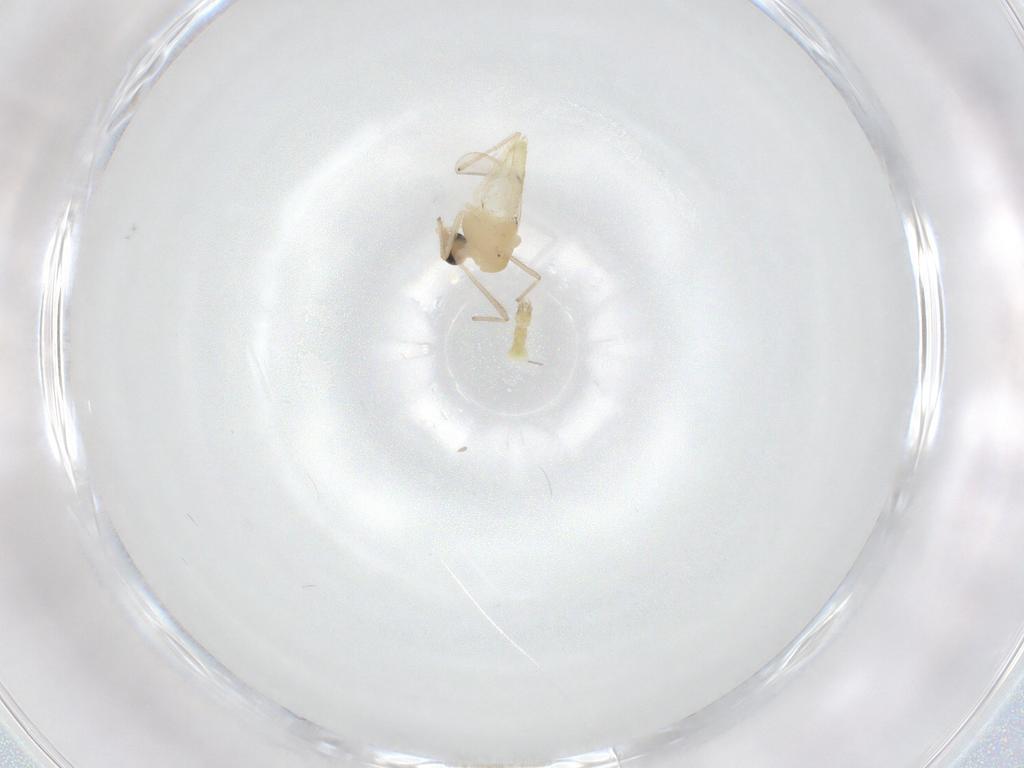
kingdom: Animalia
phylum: Arthropoda
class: Insecta
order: Diptera
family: Chironomidae
